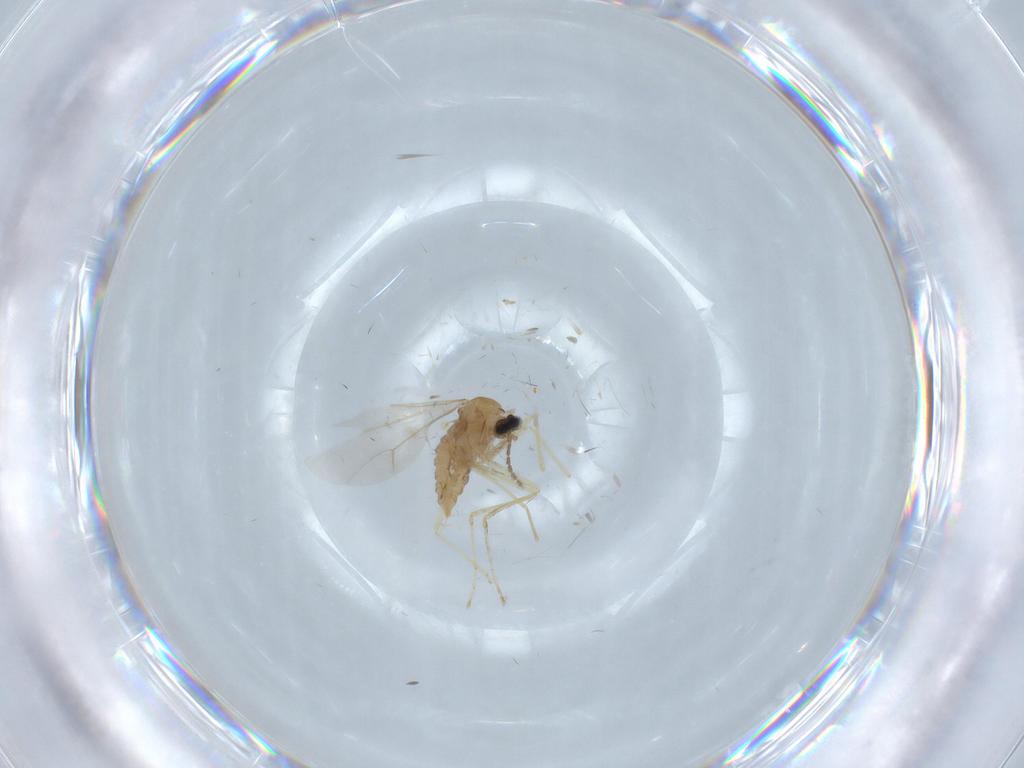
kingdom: Animalia
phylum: Arthropoda
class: Insecta
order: Diptera
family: Cecidomyiidae
